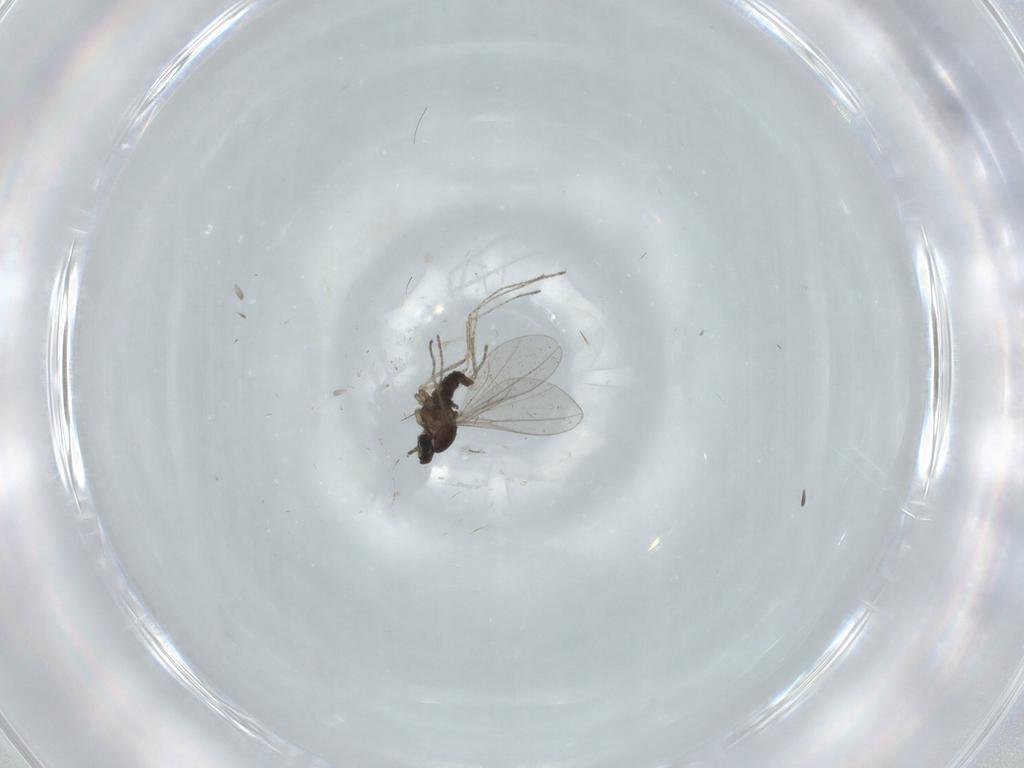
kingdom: Animalia
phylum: Arthropoda
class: Insecta
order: Diptera
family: Cecidomyiidae
